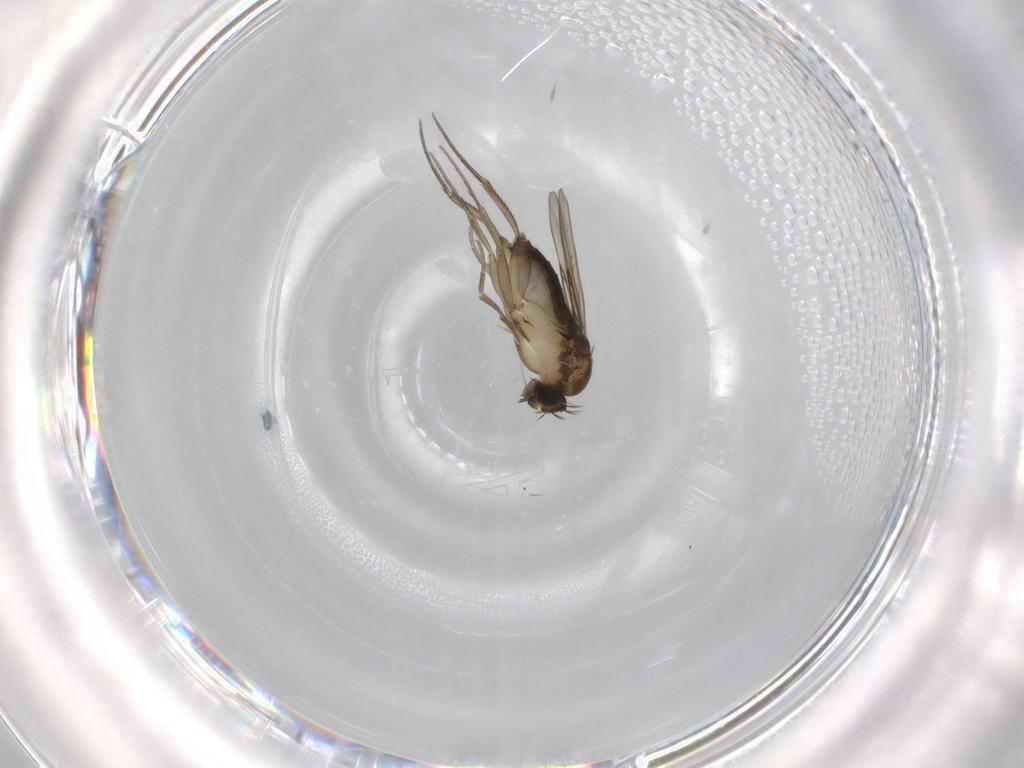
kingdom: Animalia
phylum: Arthropoda
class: Insecta
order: Diptera
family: Phoridae
